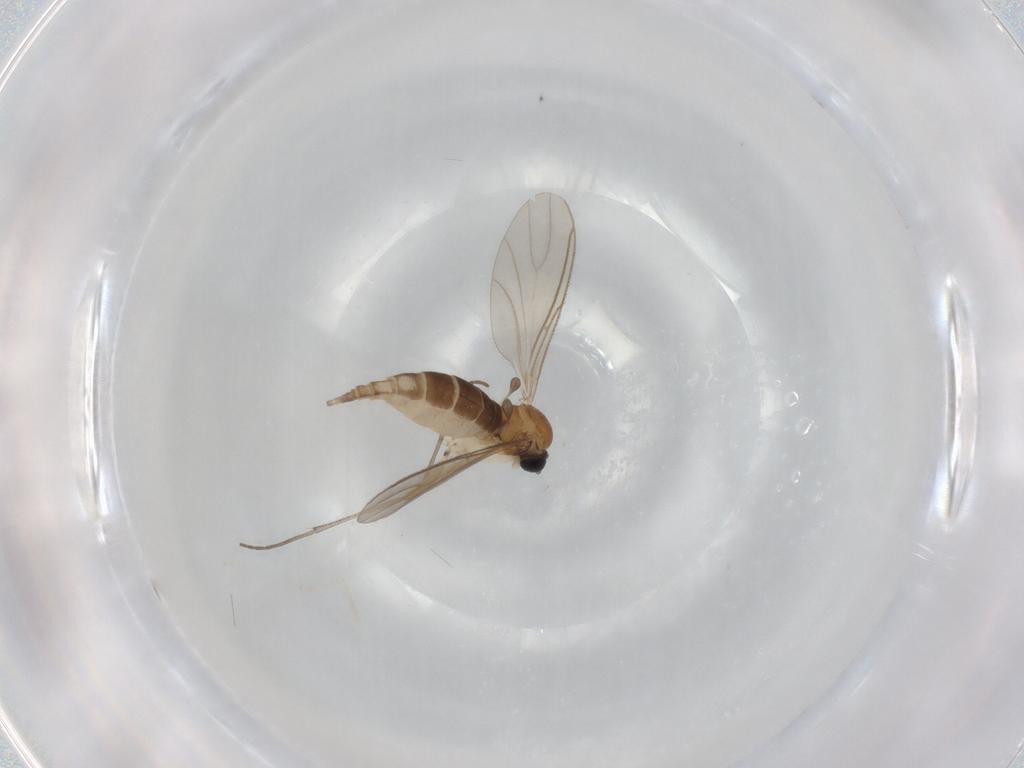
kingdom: Animalia
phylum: Arthropoda
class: Insecta
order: Diptera
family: Cecidomyiidae
